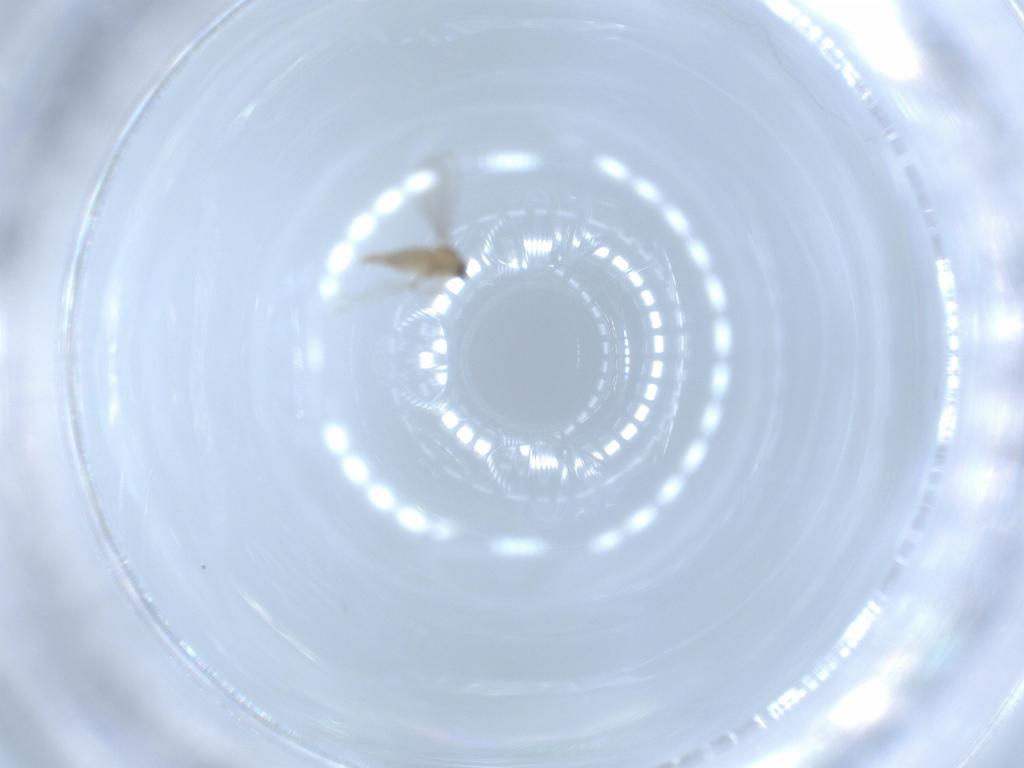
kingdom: Animalia
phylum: Arthropoda
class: Insecta
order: Diptera
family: Cecidomyiidae
